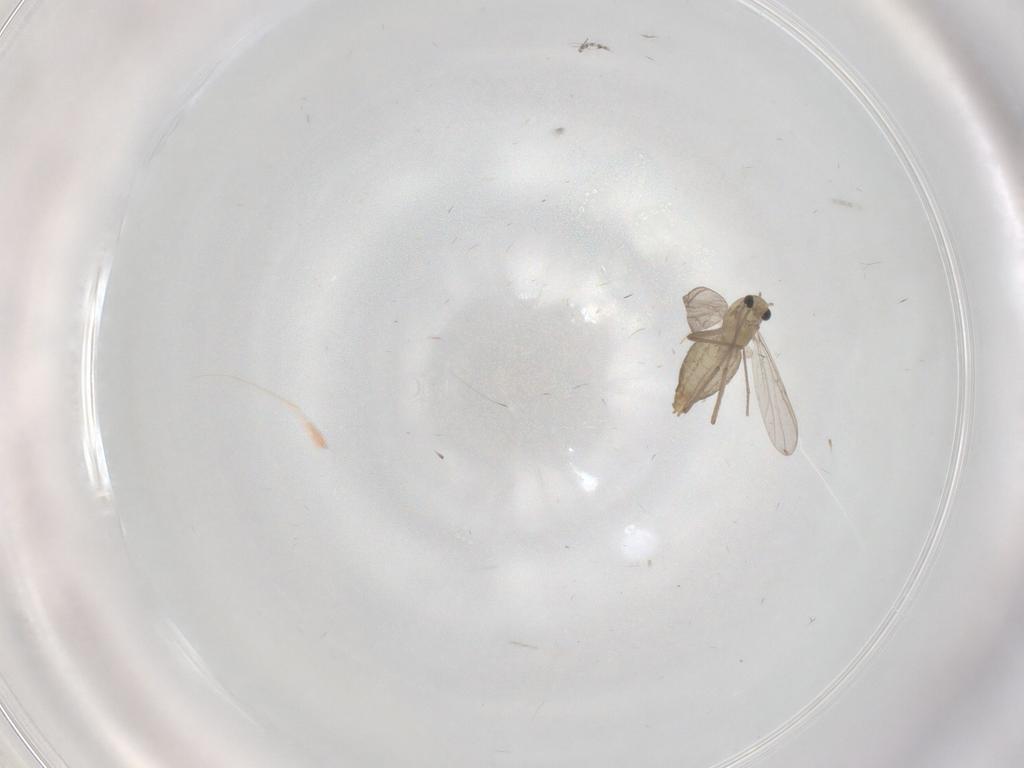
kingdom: Animalia
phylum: Arthropoda
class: Insecta
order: Diptera
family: Chironomidae
